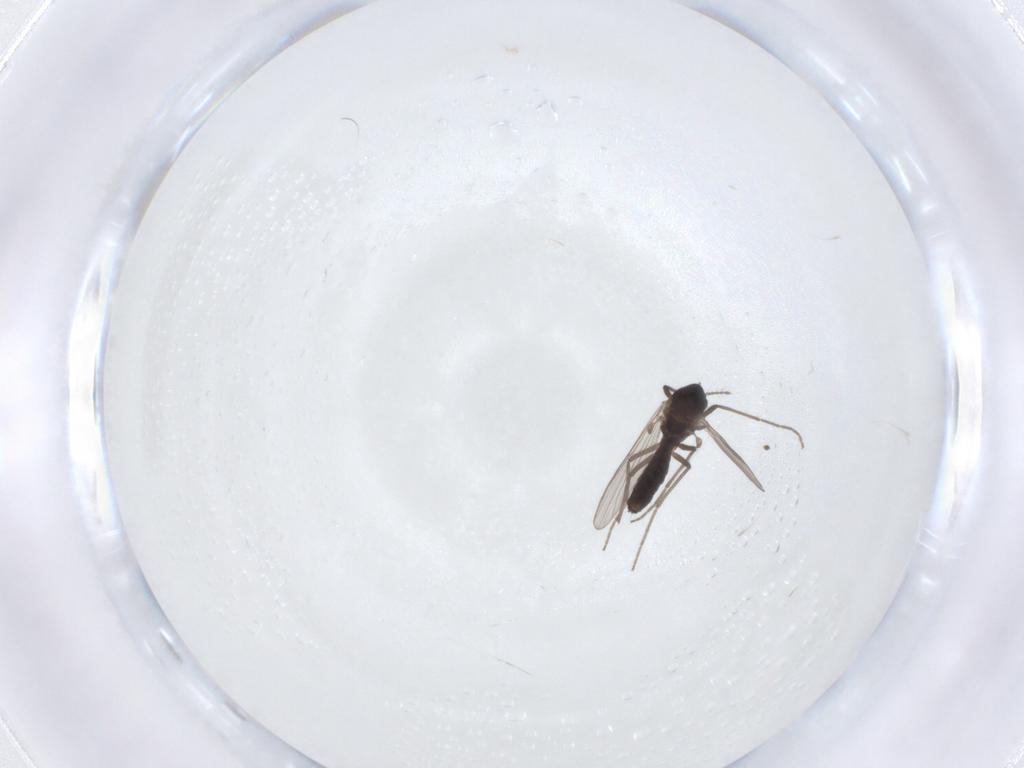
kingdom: Animalia
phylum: Arthropoda
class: Insecta
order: Diptera
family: Chironomidae
